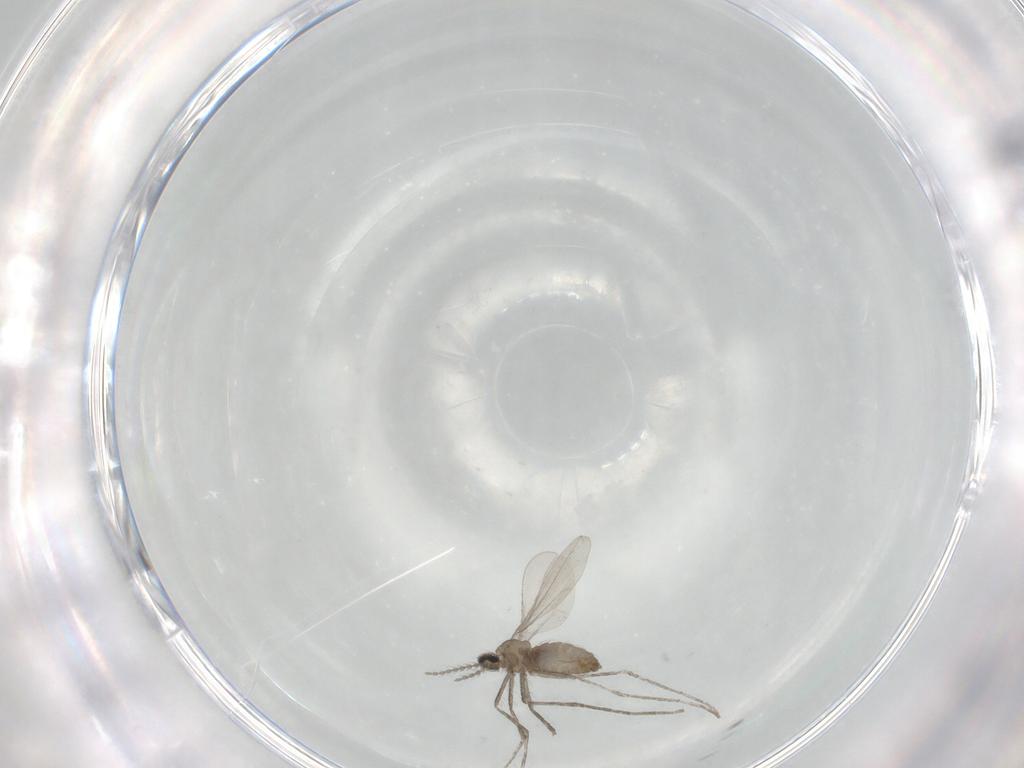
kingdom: Animalia
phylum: Arthropoda
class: Insecta
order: Diptera
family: Cecidomyiidae
